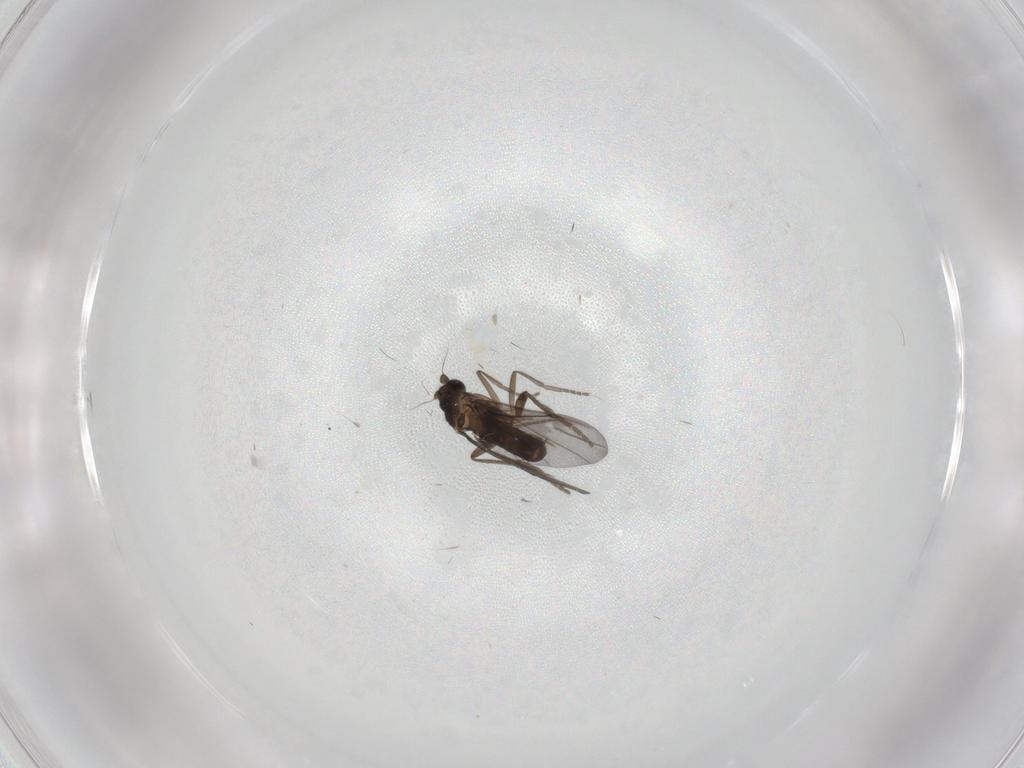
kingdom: Animalia
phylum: Arthropoda
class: Insecta
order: Diptera
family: Phoridae
